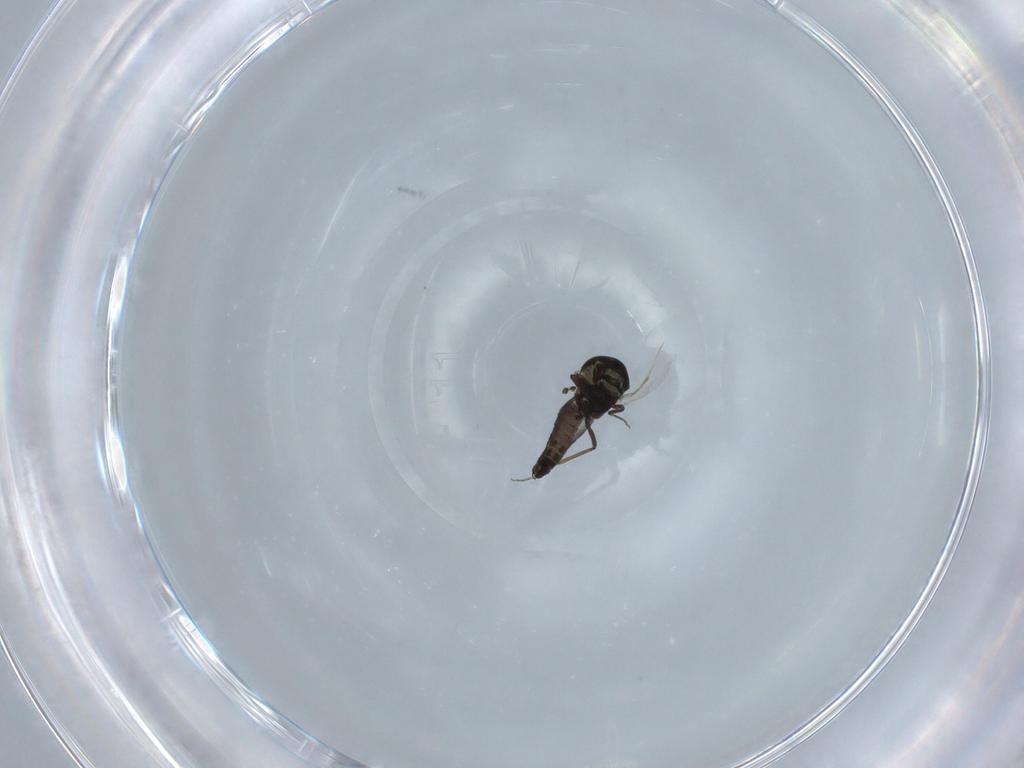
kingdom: Animalia
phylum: Arthropoda
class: Insecta
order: Diptera
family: Ceratopogonidae
